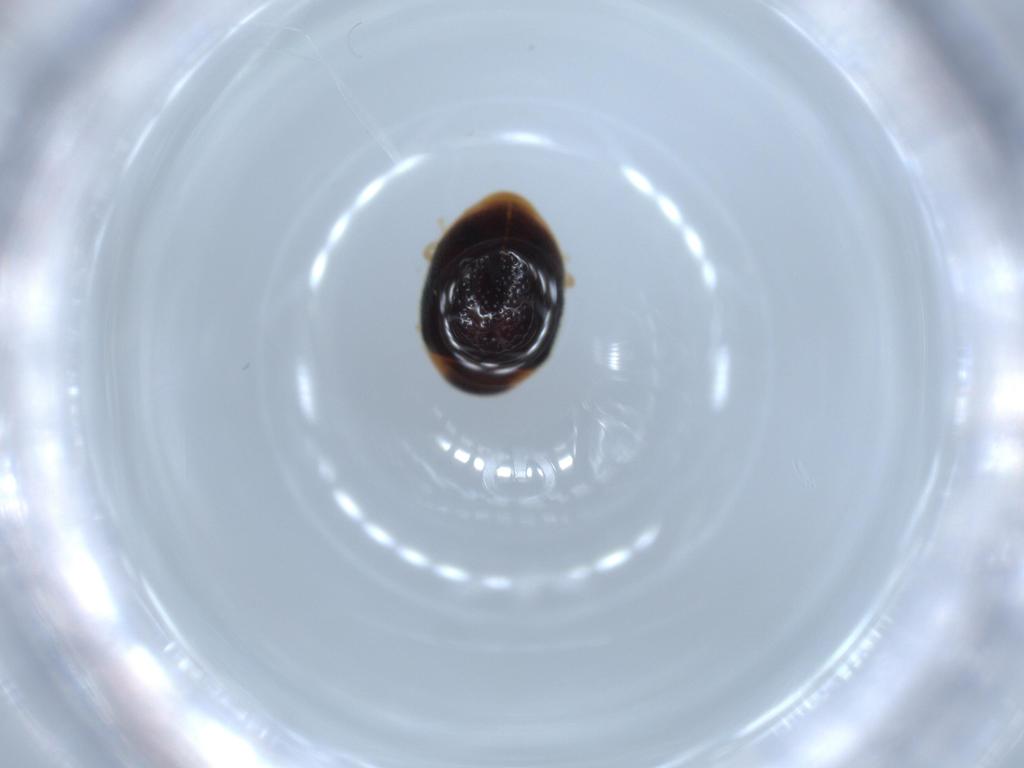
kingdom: Animalia
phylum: Arthropoda
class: Insecta
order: Coleoptera
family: Coccinellidae
